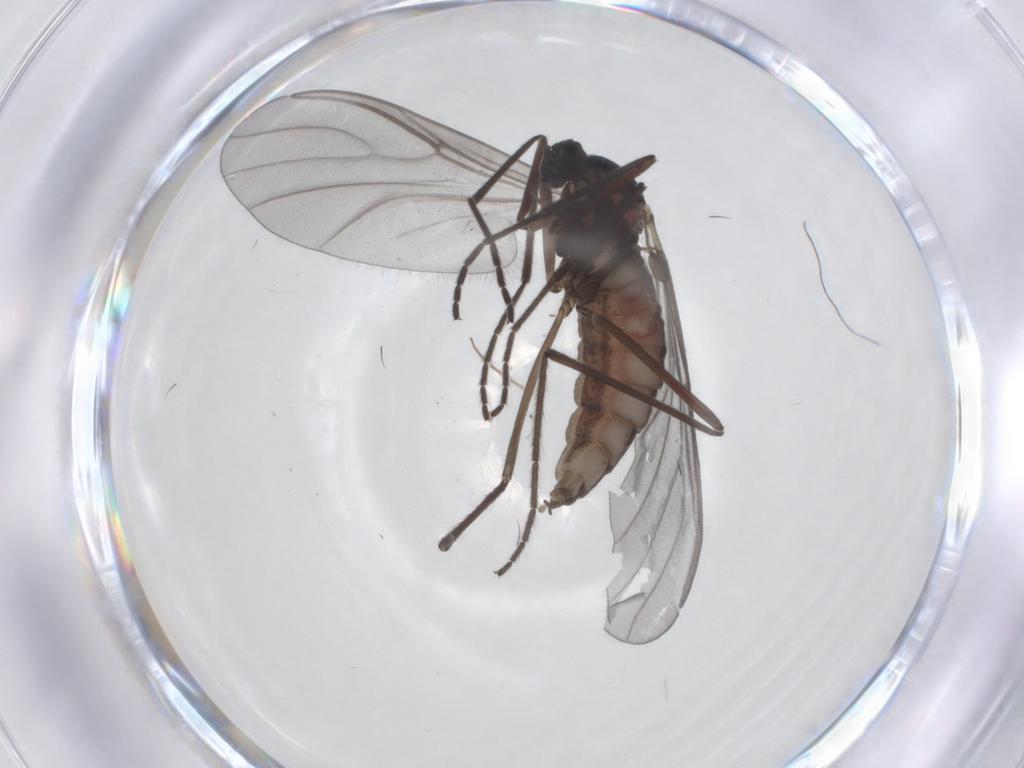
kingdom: Animalia
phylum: Arthropoda
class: Insecta
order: Diptera
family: Cecidomyiidae
